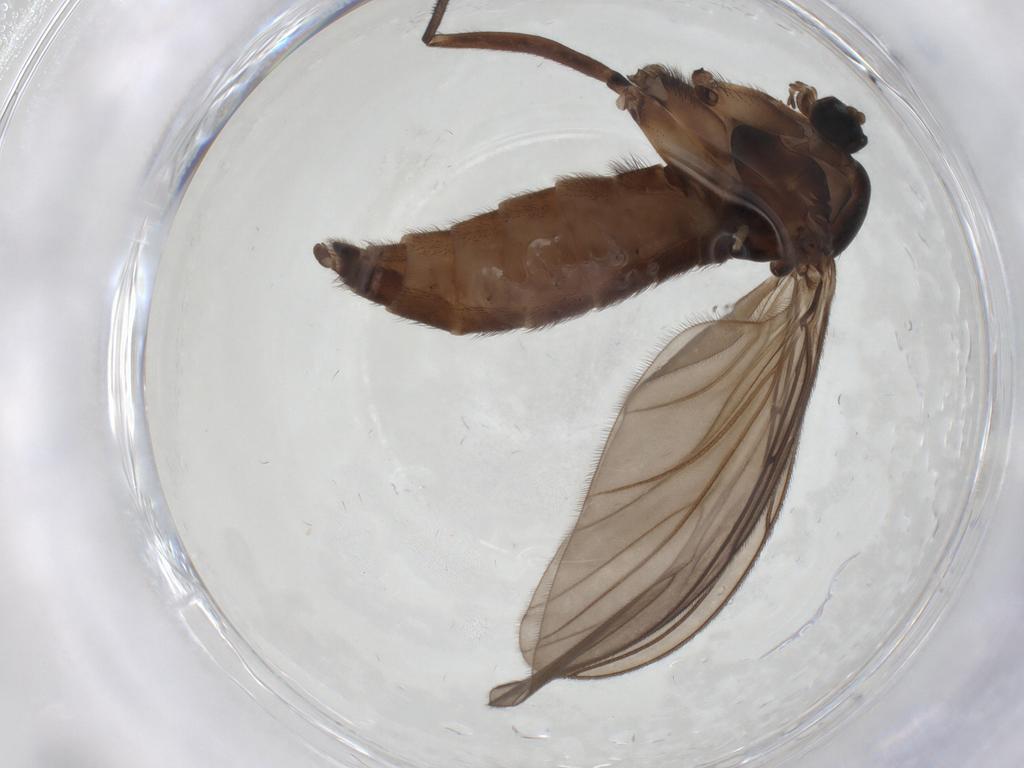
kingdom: Animalia
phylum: Arthropoda
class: Insecta
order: Diptera
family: Sciaridae
